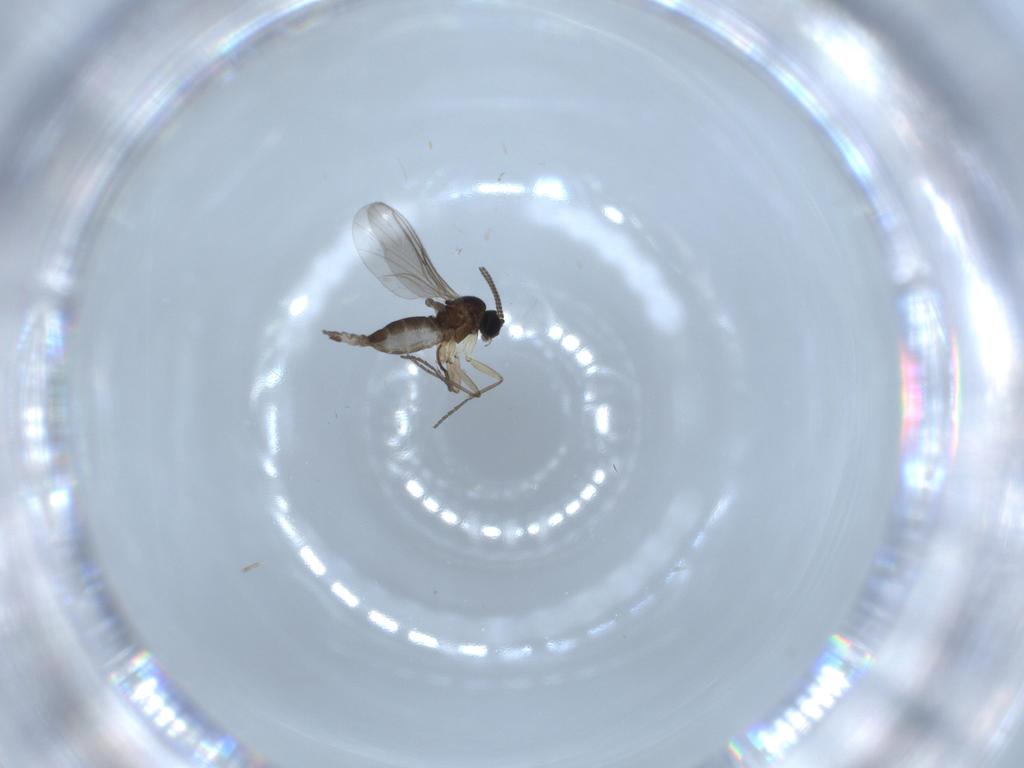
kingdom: Animalia
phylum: Arthropoda
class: Insecta
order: Diptera
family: Sciaridae
